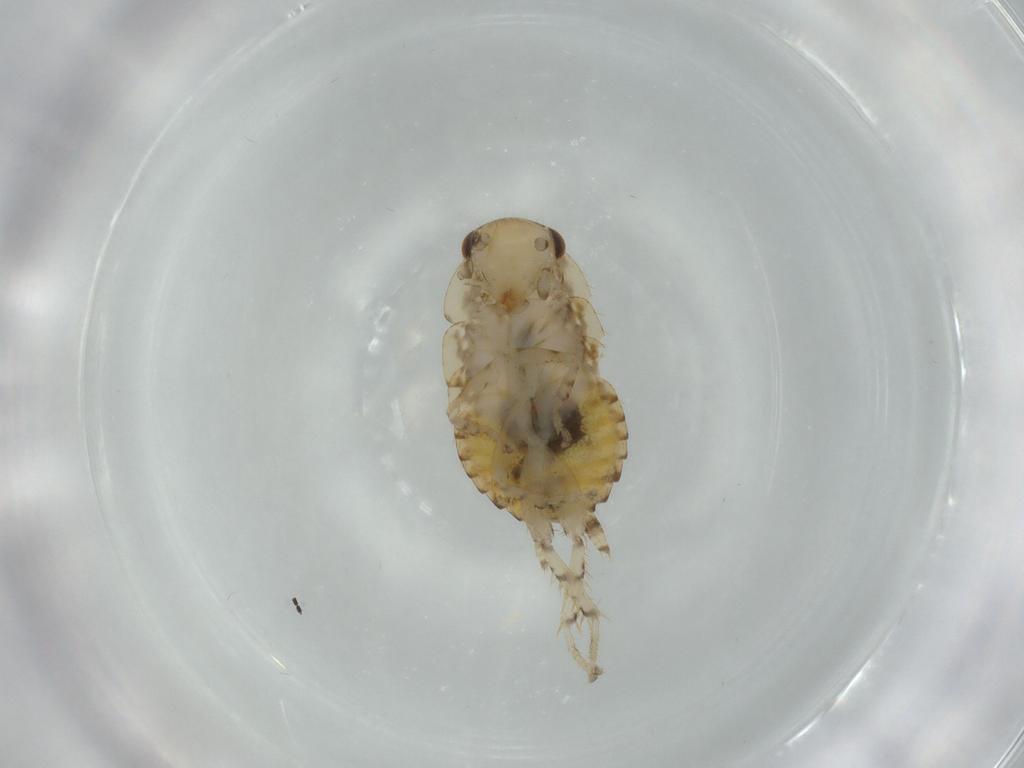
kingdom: Animalia
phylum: Arthropoda
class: Insecta
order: Blattodea
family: Ectobiidae
